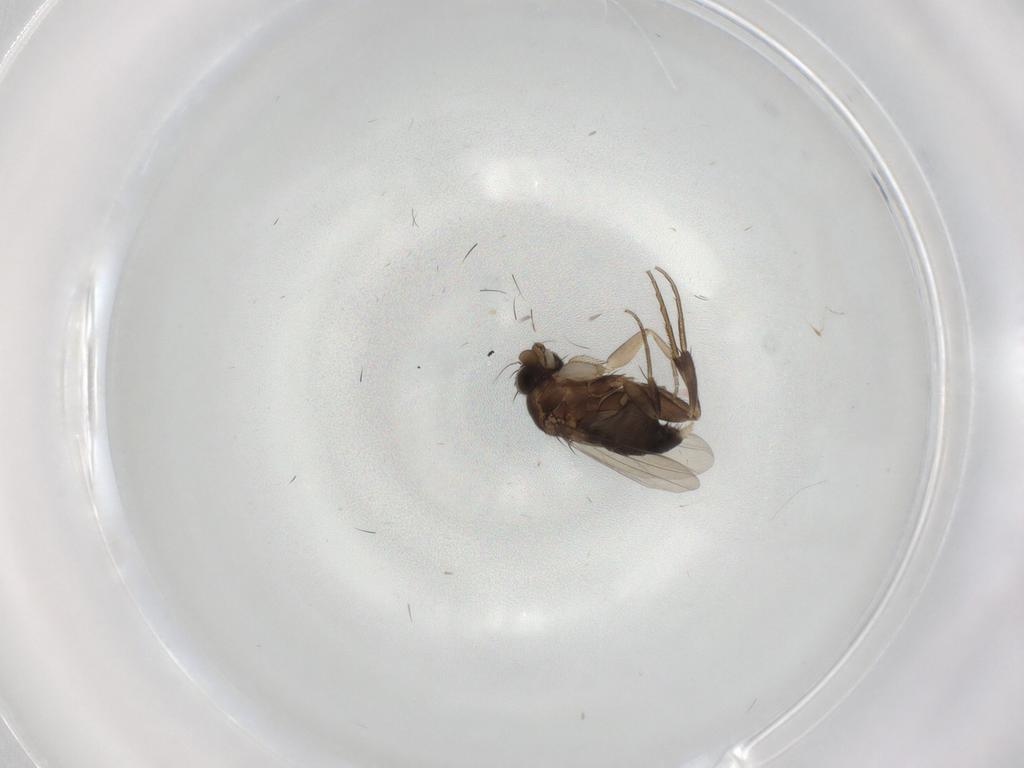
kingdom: Animalia
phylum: Arthropoda
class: Insecta
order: Diptera
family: Phoridae
